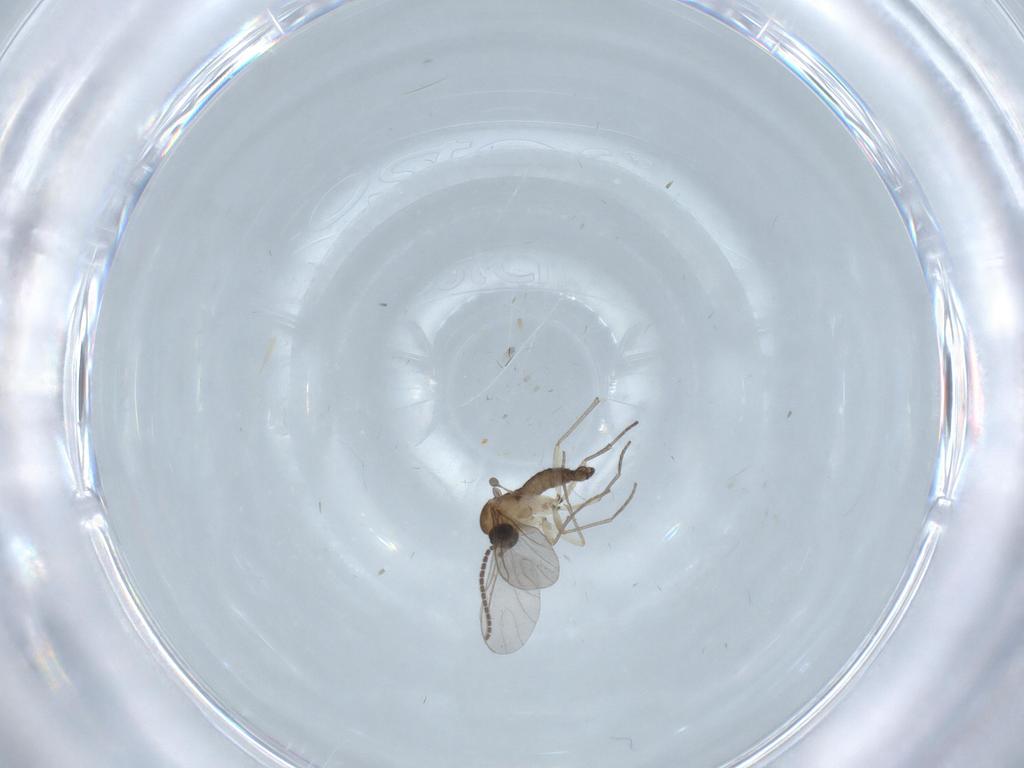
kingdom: Animalia
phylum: Arthropoda
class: Insecta
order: Diptera
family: Sciaridae
